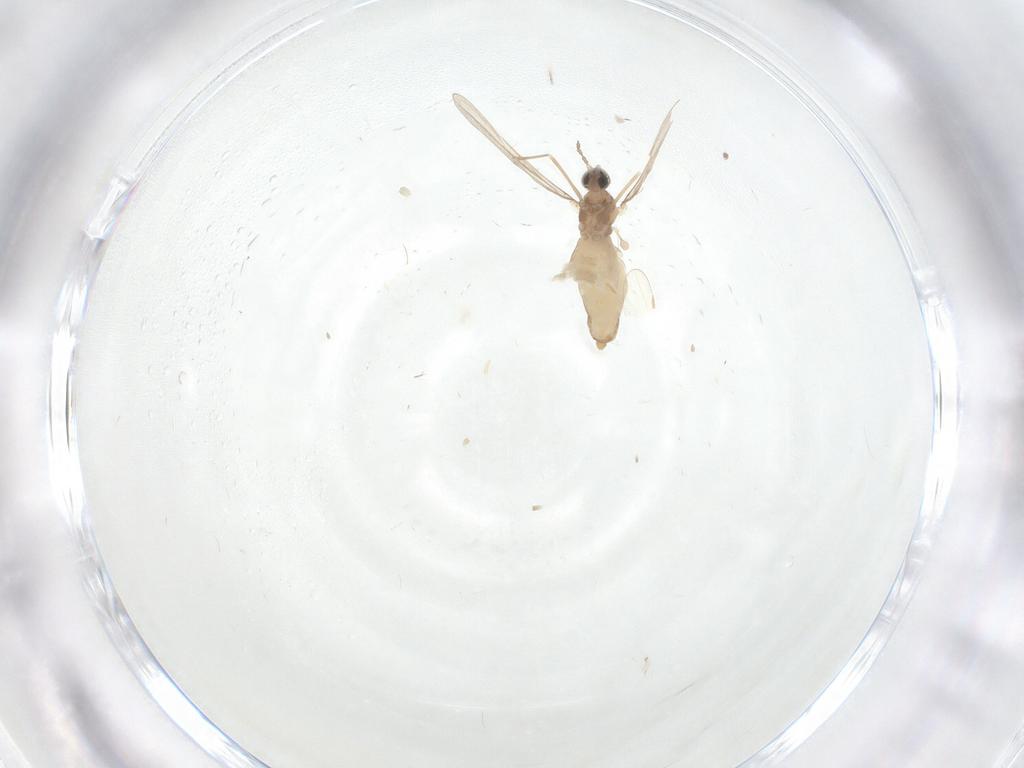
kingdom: Animalia
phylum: Arthropoda
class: Insecta
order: Diptera
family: Cecidomyiidae
